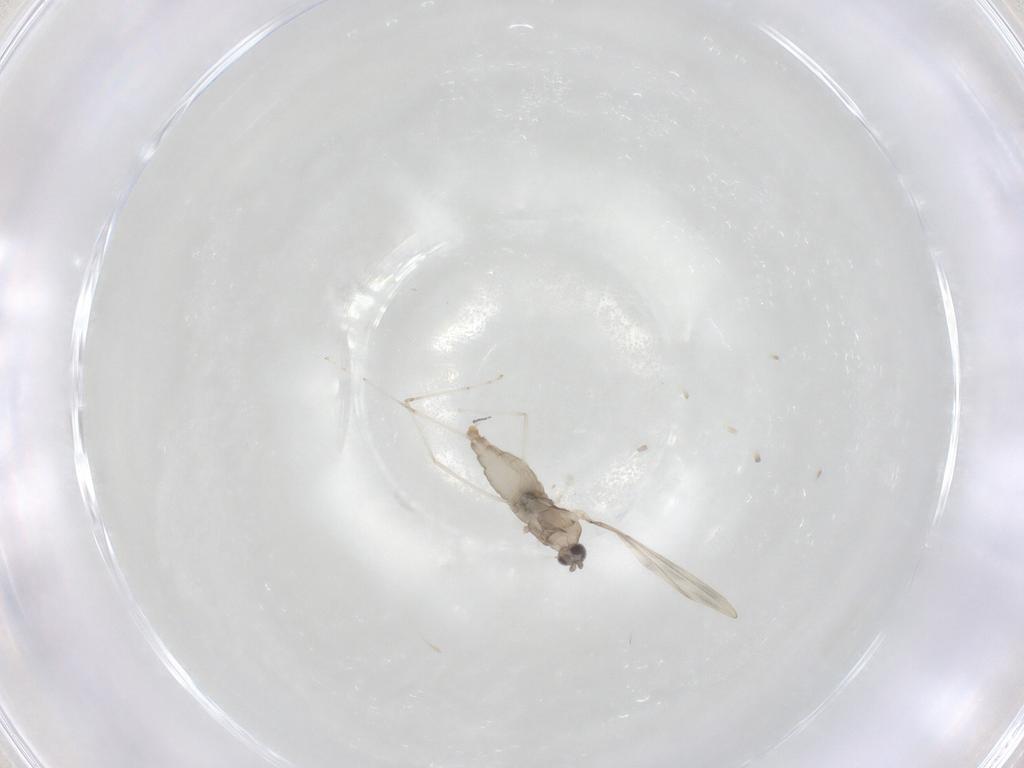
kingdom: Animalia
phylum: Arthropoda
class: Insecta
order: Diptera
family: Cecidomyiidae
